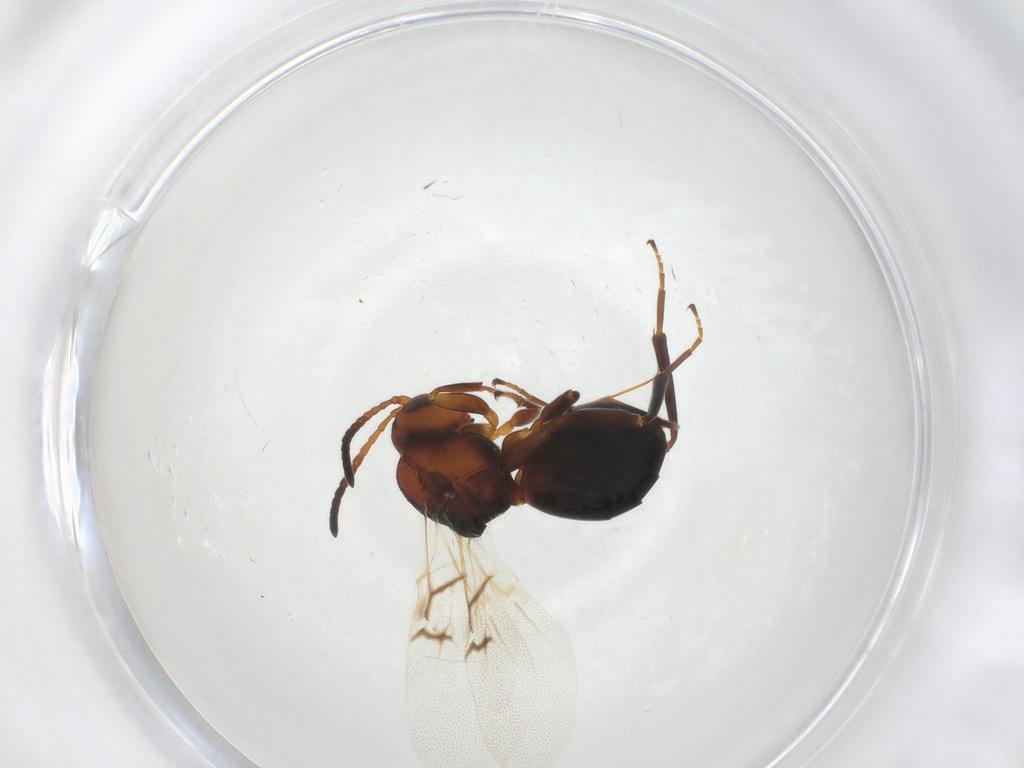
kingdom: Animalia
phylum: Arthropoda
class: Insecta
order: Hymenoptera
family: Cynipidae
